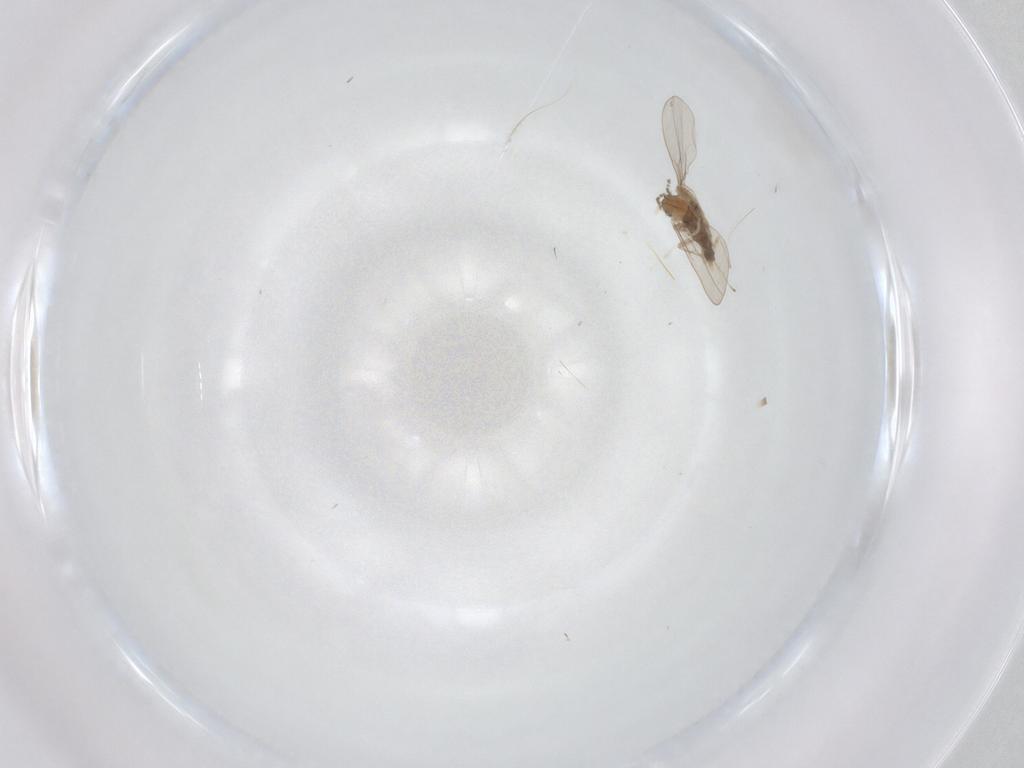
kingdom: Animalia
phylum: Arthropoda
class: Insecta
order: Diptera
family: Cecidomyiidae
